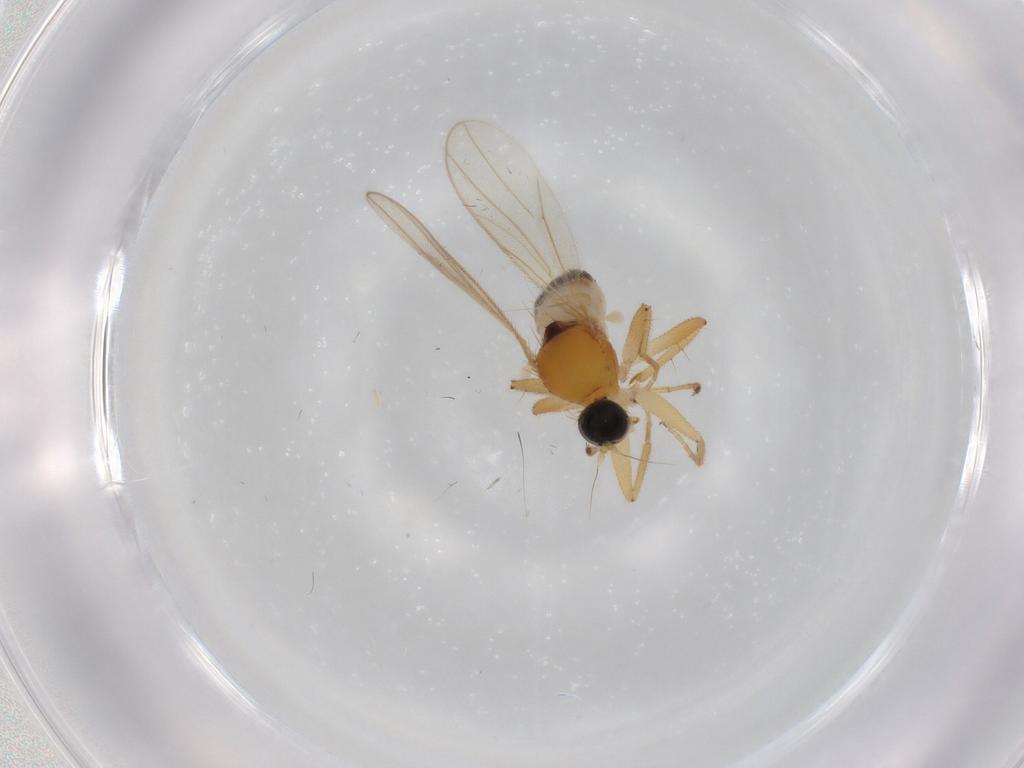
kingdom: Animalia
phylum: Arthropoda
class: Insecta
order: Diptera
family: Hybotidae
